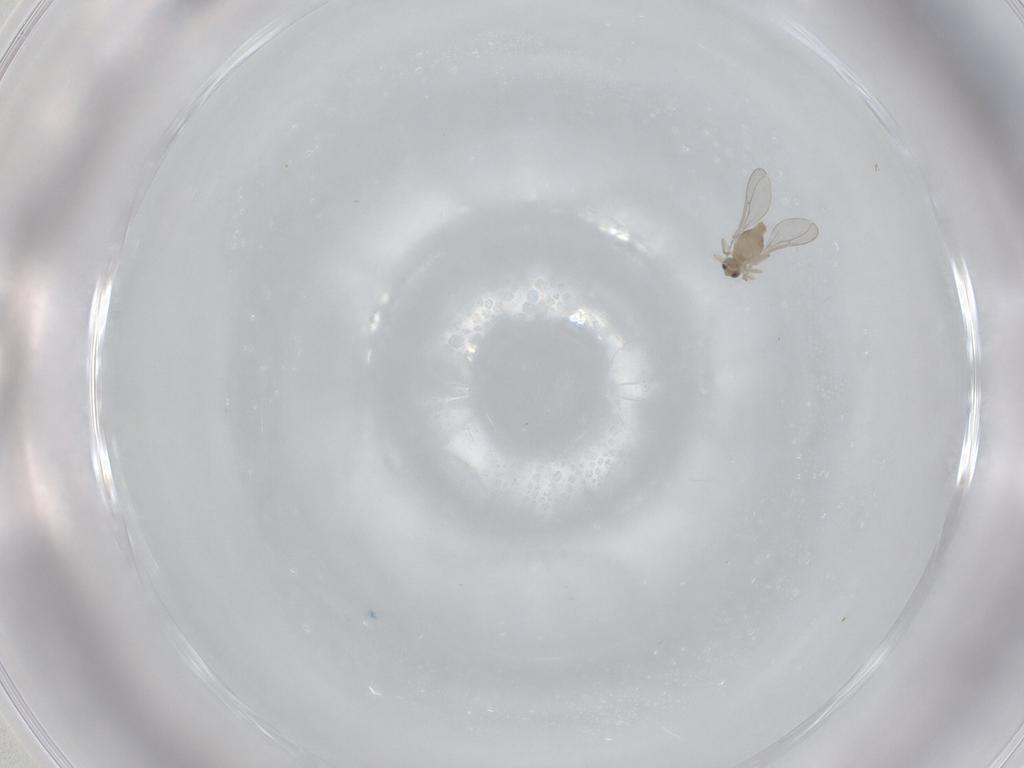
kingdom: Animalia
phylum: Arthropoda
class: Insecta
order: Diptera
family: Cecidomyiidae
